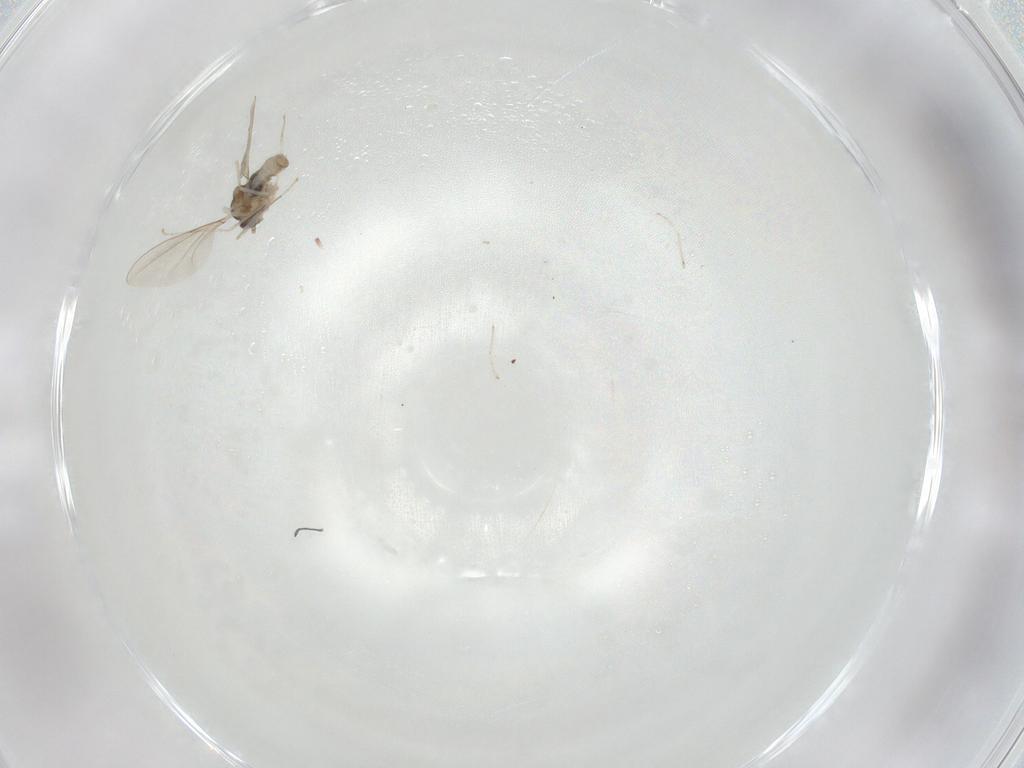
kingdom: Animalia
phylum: Arthropoda
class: Insecta
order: Diptera
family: Cecidomyiidae
